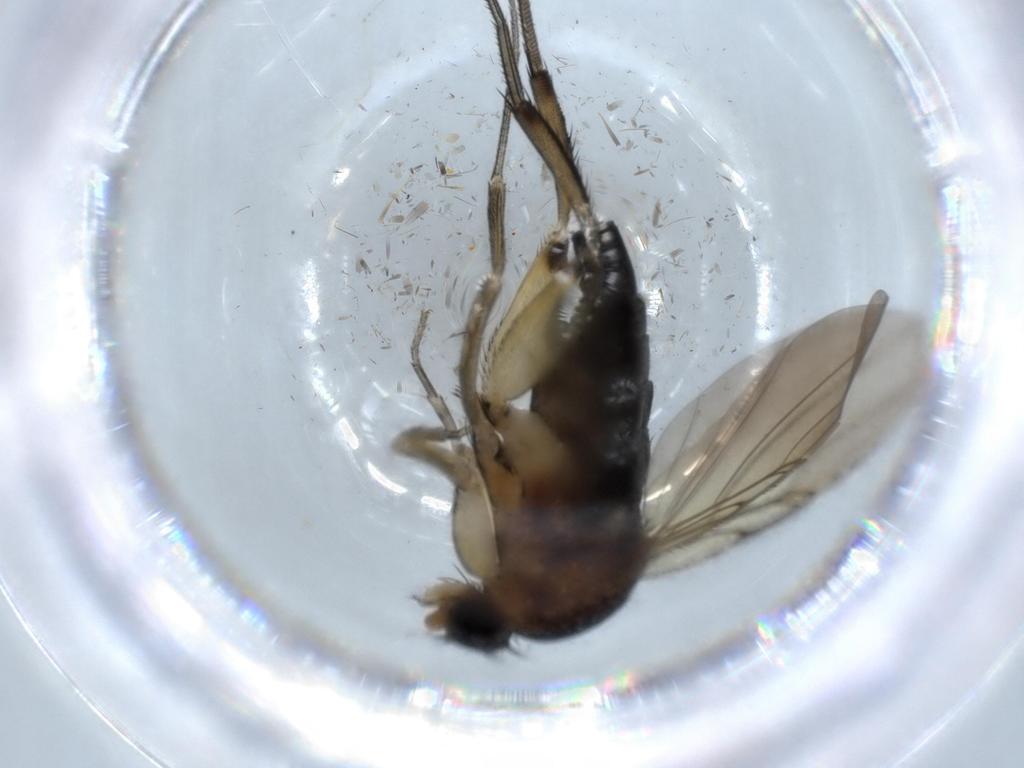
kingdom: Animalia
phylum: Arthropoda
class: Insecta
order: Diptera
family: Phoridae
